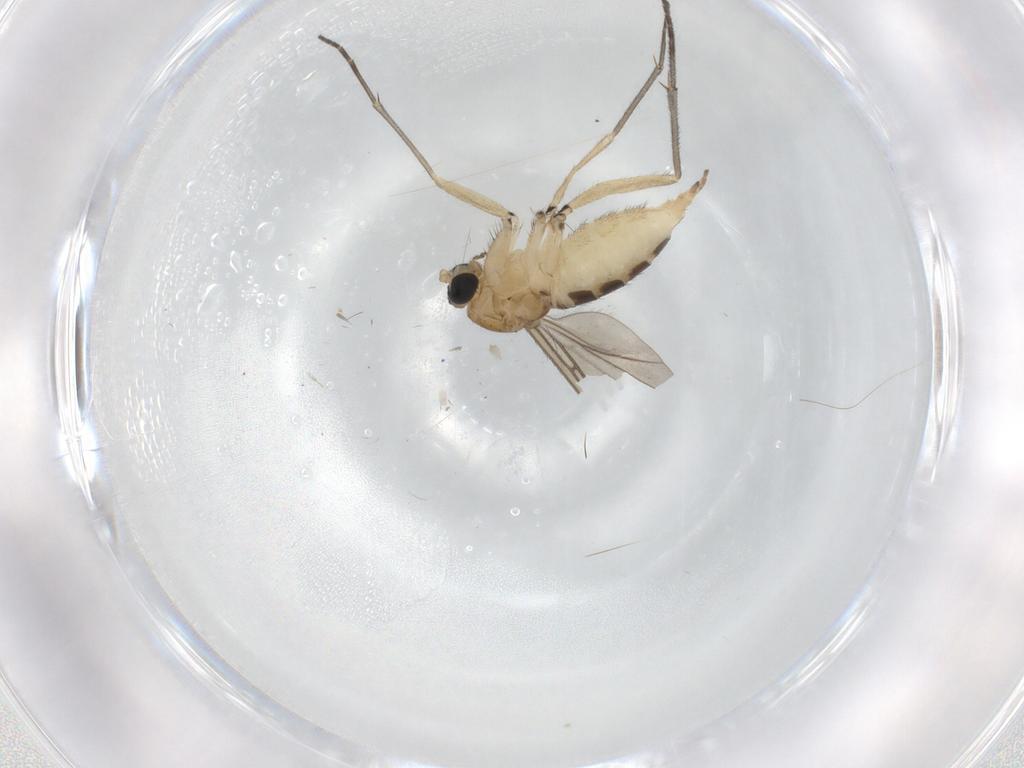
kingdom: Animalia
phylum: Arthropoda
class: Insecta
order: Diptera
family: Sciaridae
